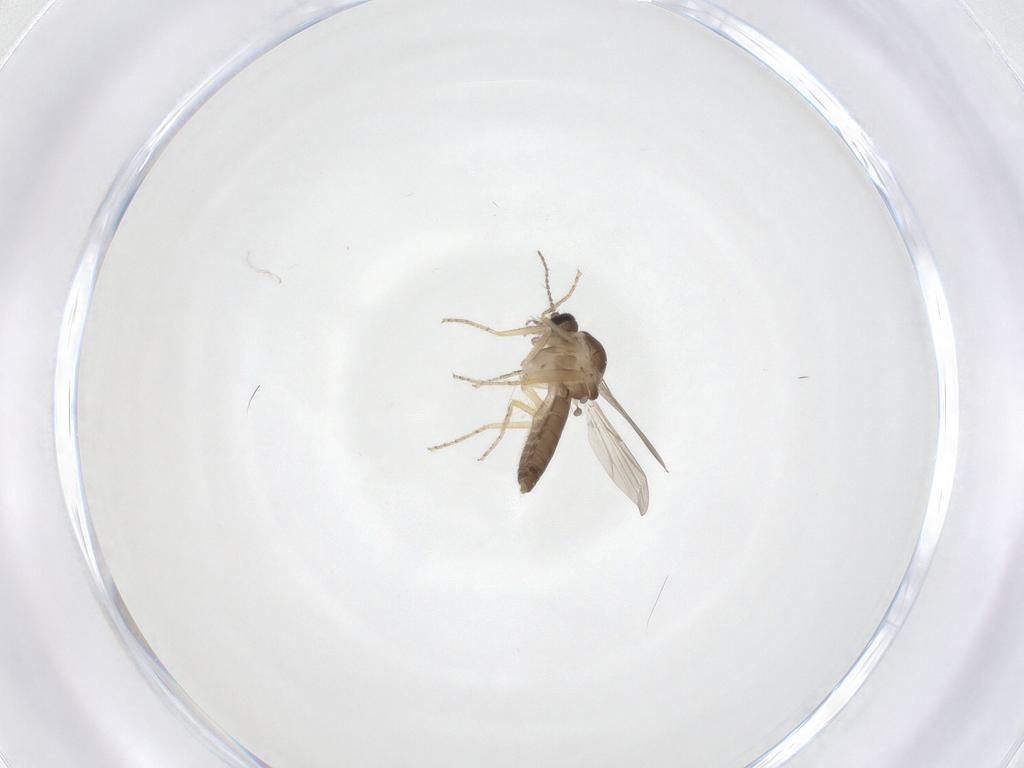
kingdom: Animalia
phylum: Arthropoda
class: Insecta
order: Diptera
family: Ceratopogonidae
